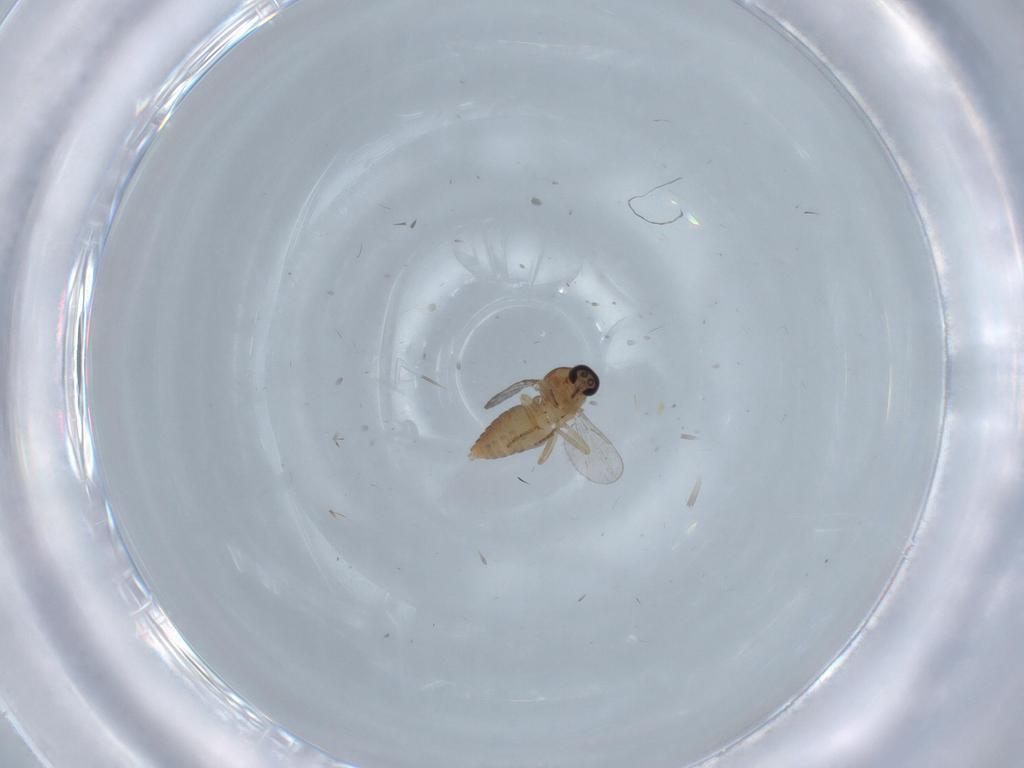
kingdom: Animalia
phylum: Arthropoda
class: Insecta
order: Diptera
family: Ceratopogonidae
